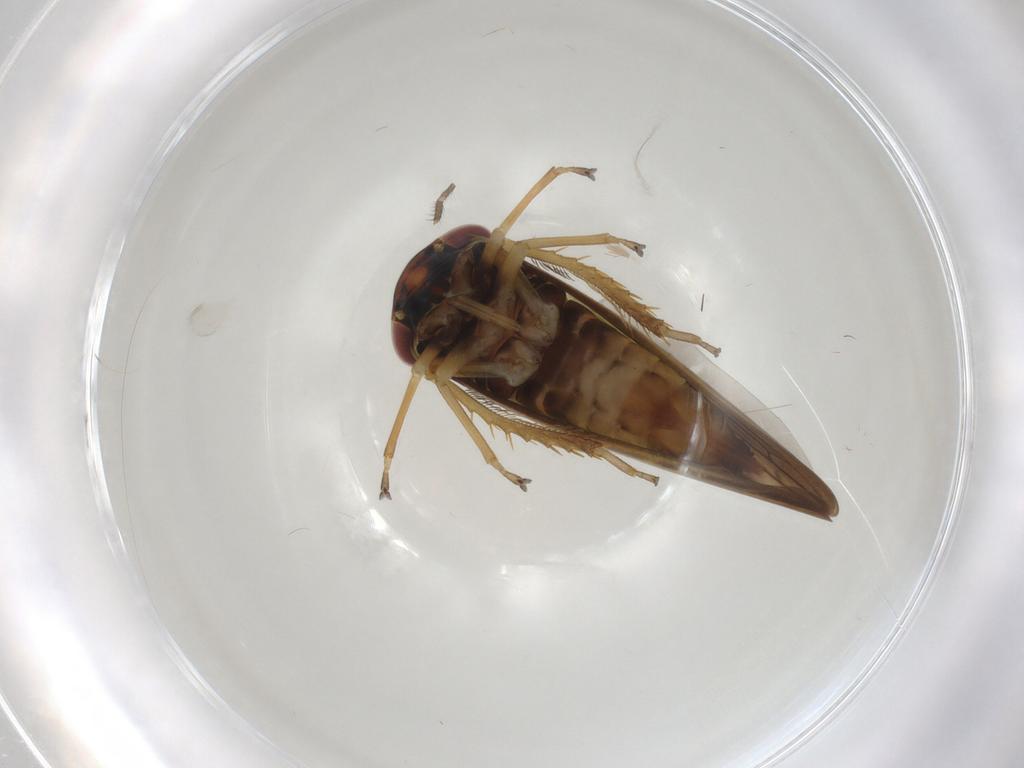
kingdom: Animalia
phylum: Arthropoda
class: Insecta
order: Hemiptera
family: Cicadellidae
